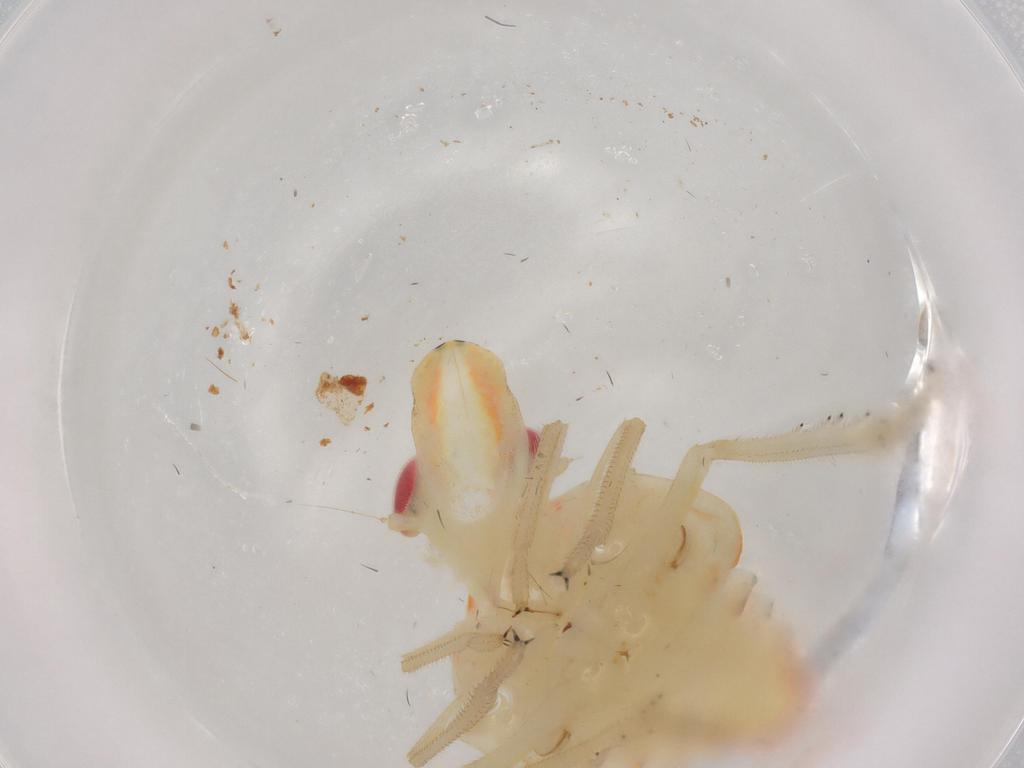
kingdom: Animalia
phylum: Arthropoda
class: Insecta
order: Hemiptera
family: Tropiduchidae
